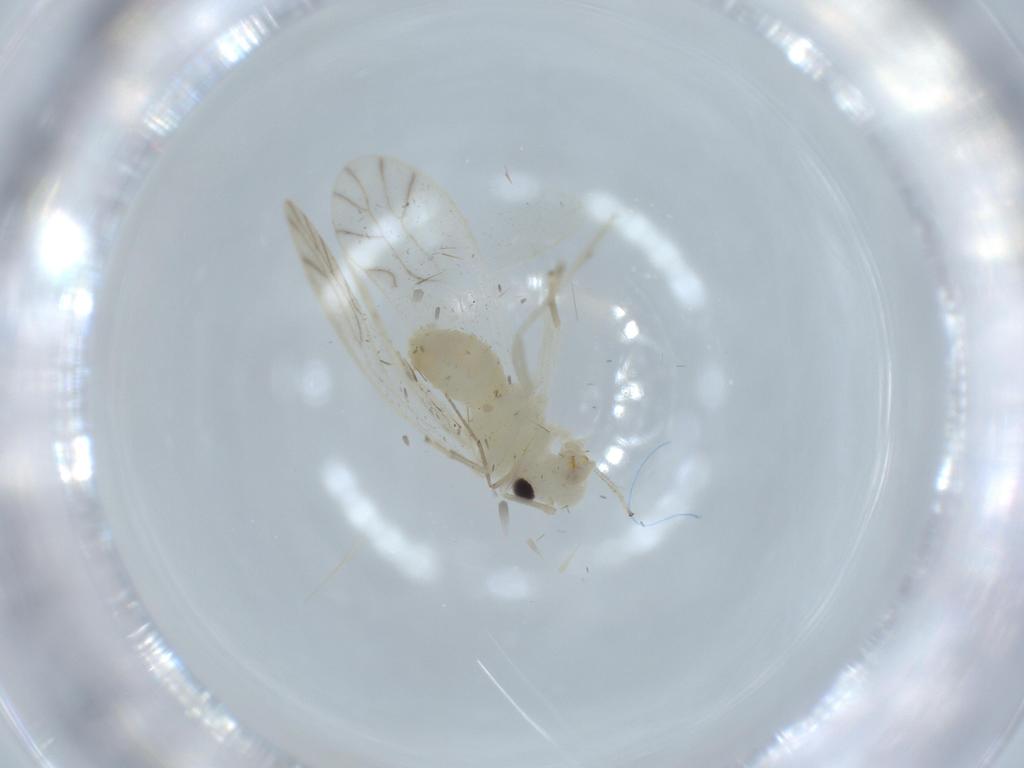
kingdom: Animalia
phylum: Arthropoda
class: Insecta
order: Psocodea
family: Caeciliusidae
